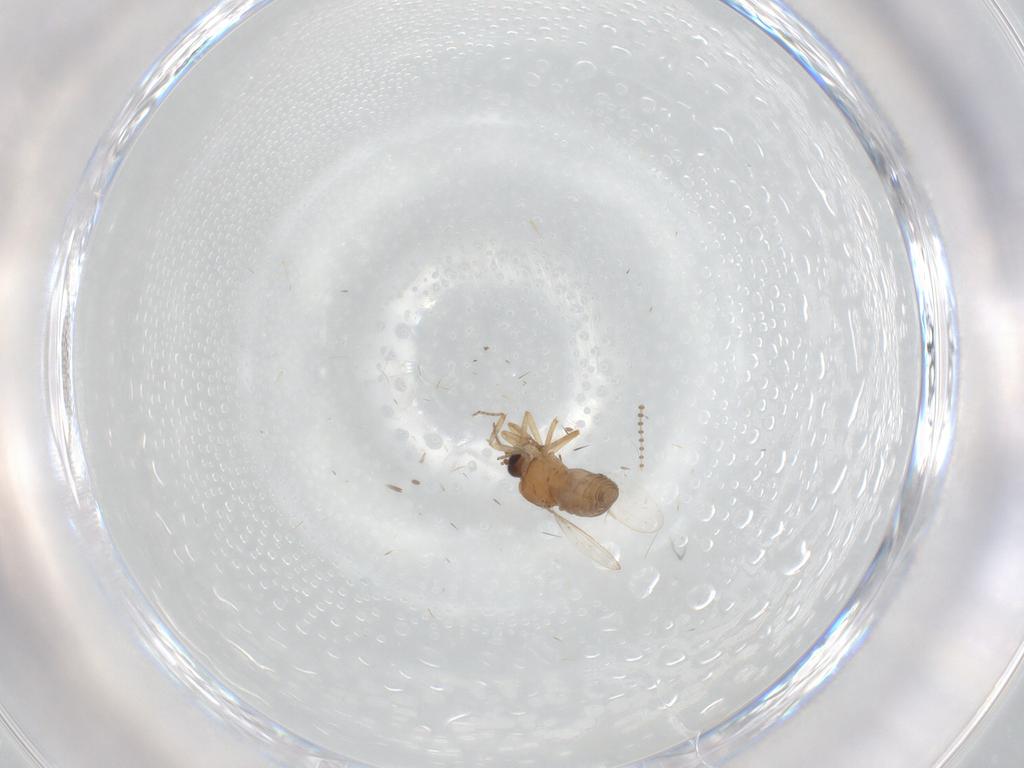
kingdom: Animalia
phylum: Arthropoda
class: Insecta
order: Diptera
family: Ceratopogonidae
